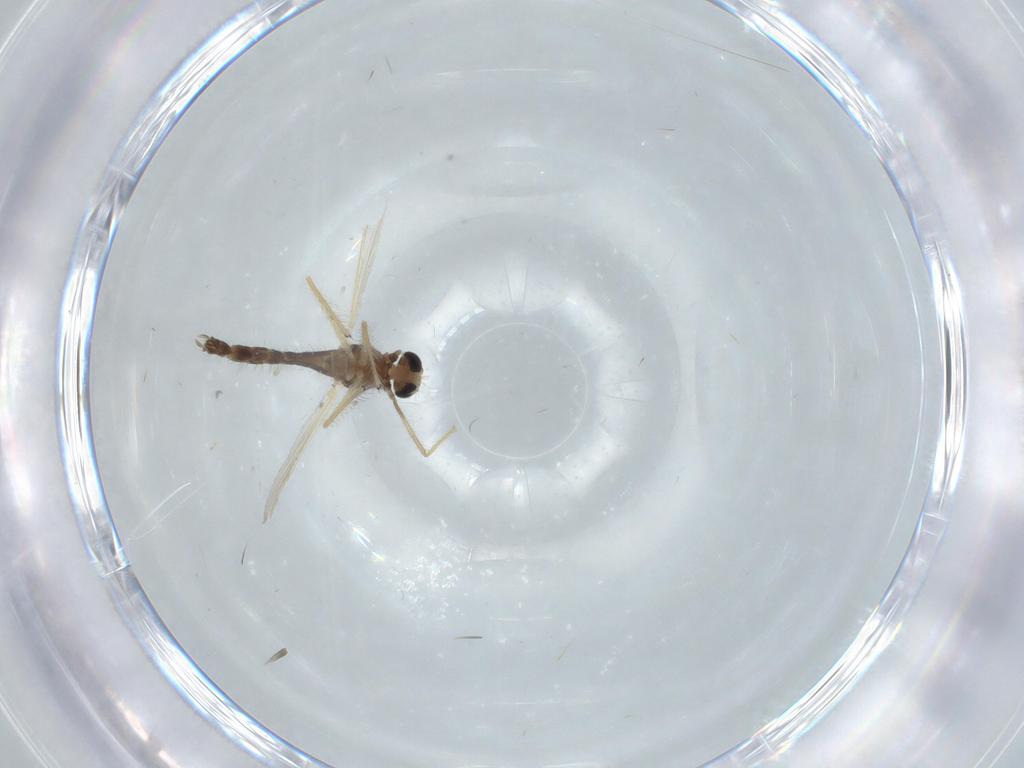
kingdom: Animalia
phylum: Arthropoda
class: Insecta
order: Diptera
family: Chironomidae
